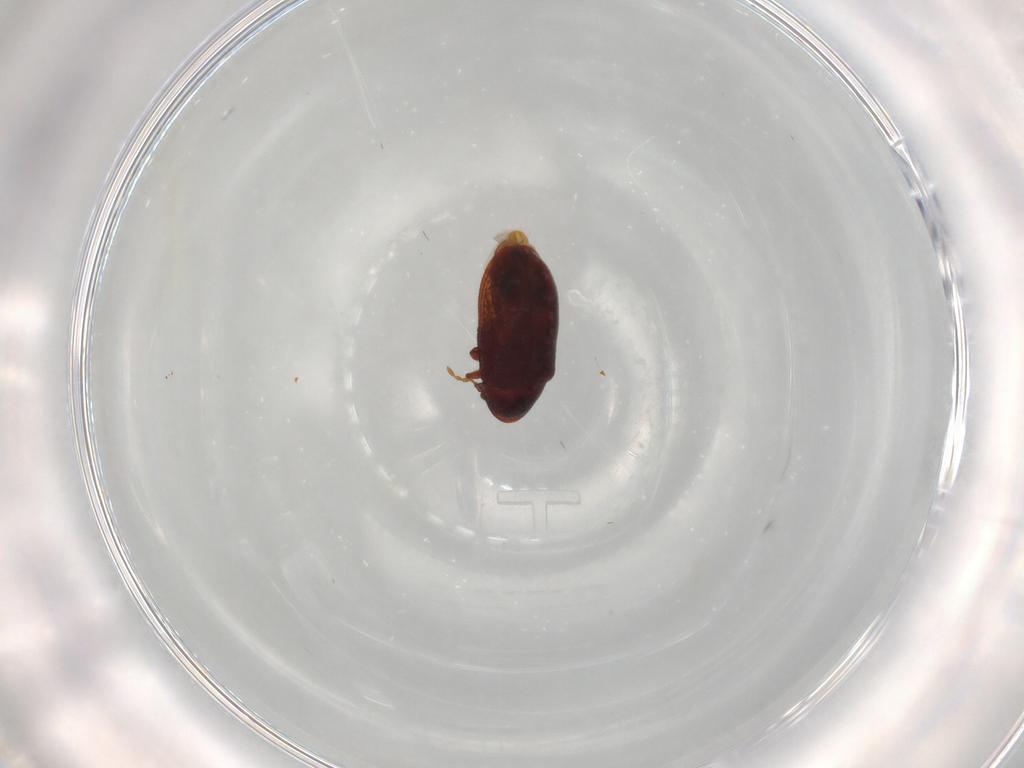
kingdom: Animalia
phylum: Arthropoda
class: Insecta
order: Coleoptera
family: Ptinidae
